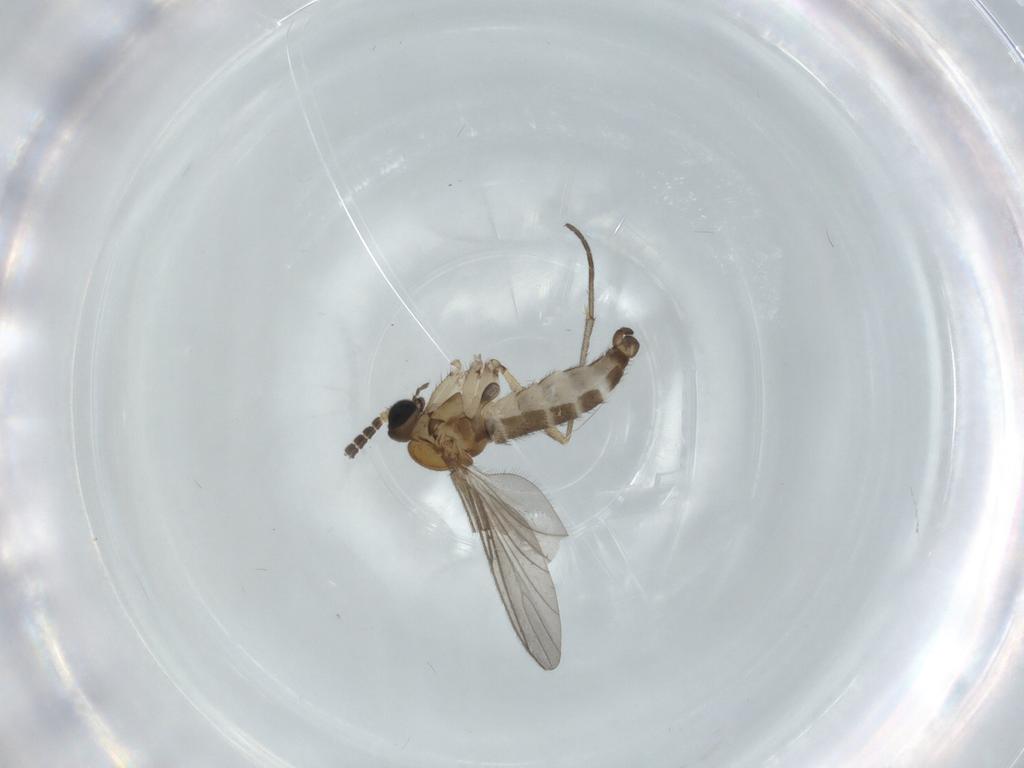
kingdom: Animalia
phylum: Arthropoda
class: Insecta
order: Diptera
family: Sciaridae
